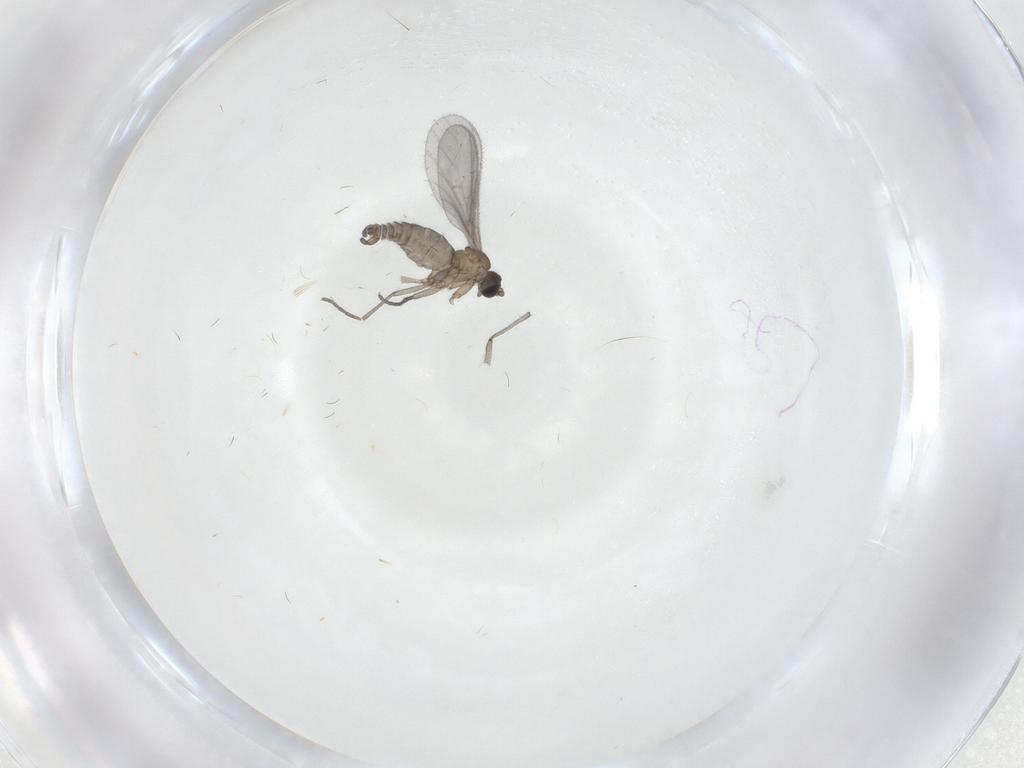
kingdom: Animalia
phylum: Arthropoda
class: Insecta
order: Diptera
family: Sciaridae
